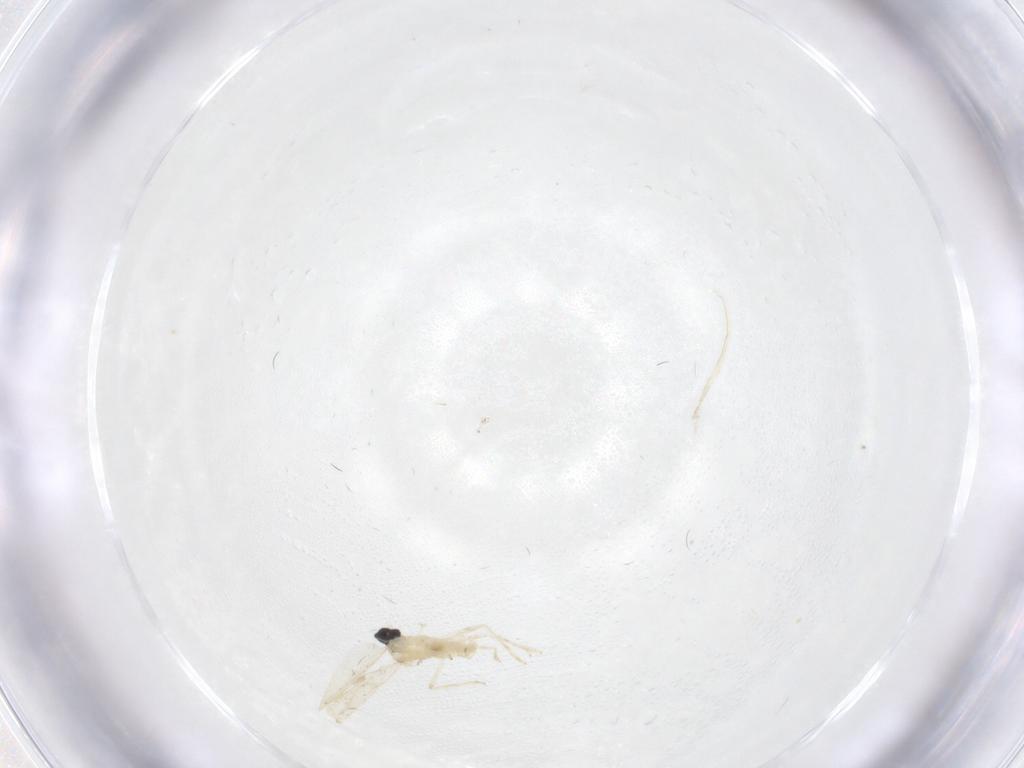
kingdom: Animalia
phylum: Arthropoda
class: Insecta
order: Diptera
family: Cecidomyiidae
